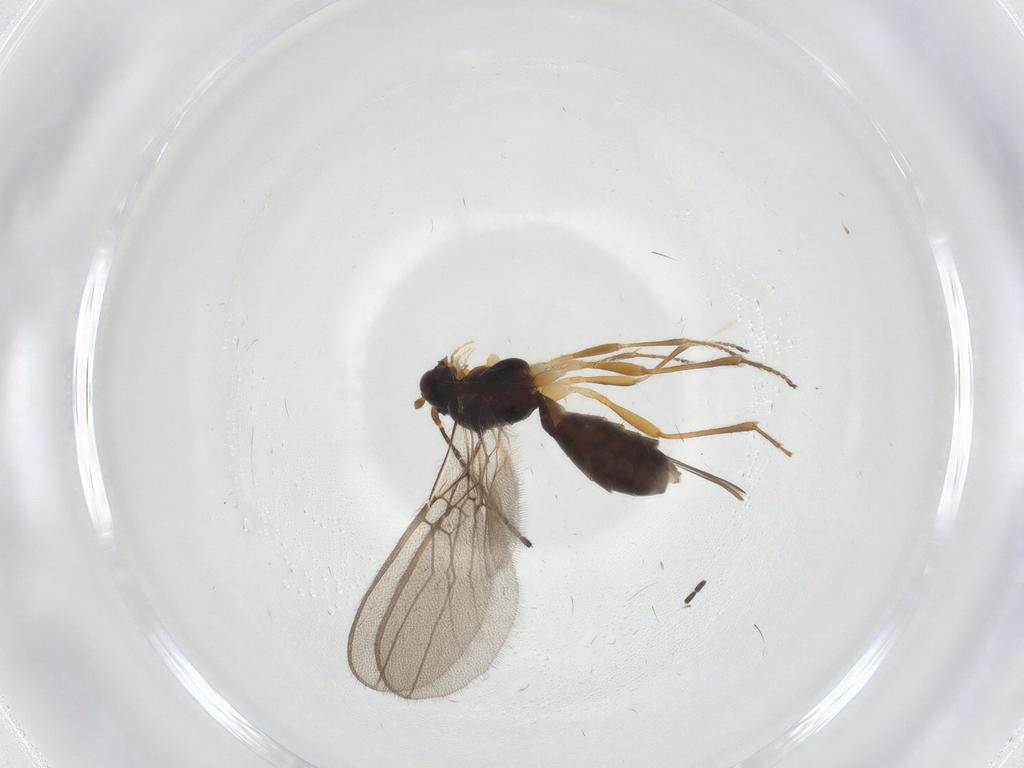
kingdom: Animalia
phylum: Arthropoda
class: Insecta
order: Hymenoptera
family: Braconidae
